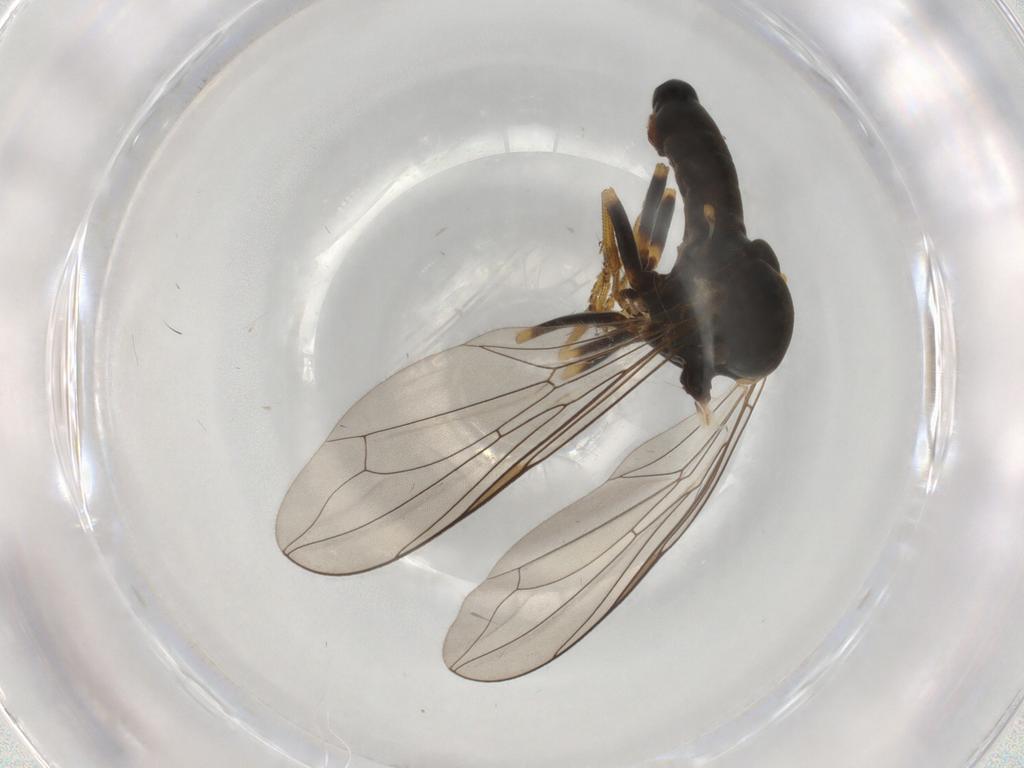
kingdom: Animalia
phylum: Arthropoda
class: Insecta
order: Diptera
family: Pipunculidae
